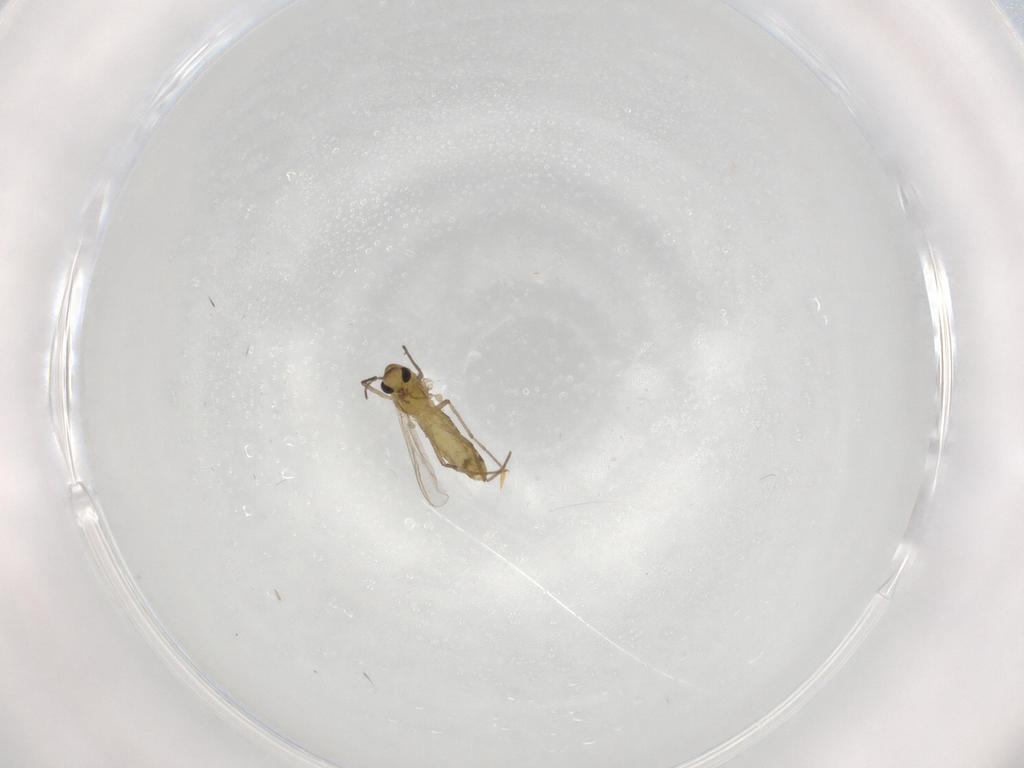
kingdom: Animalia
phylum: Arthropoda
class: Insecta
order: Diptera
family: Chironomidae
